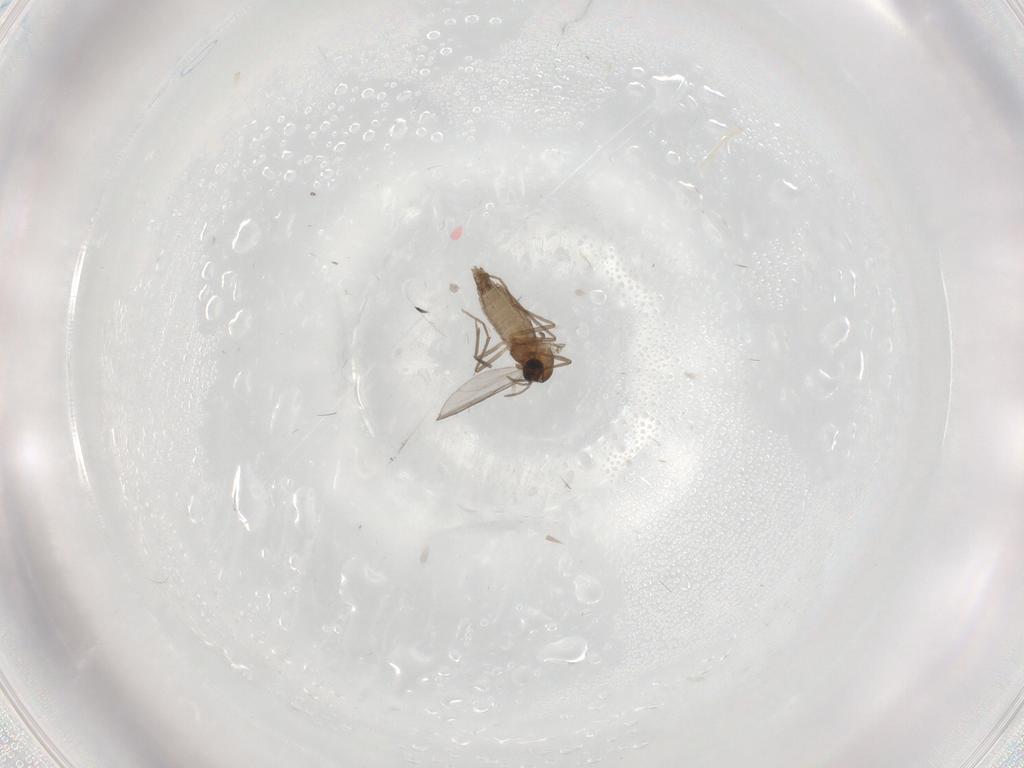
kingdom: Animalia
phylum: Arthropoda
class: Insecta
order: Diptera
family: Chironomidae
